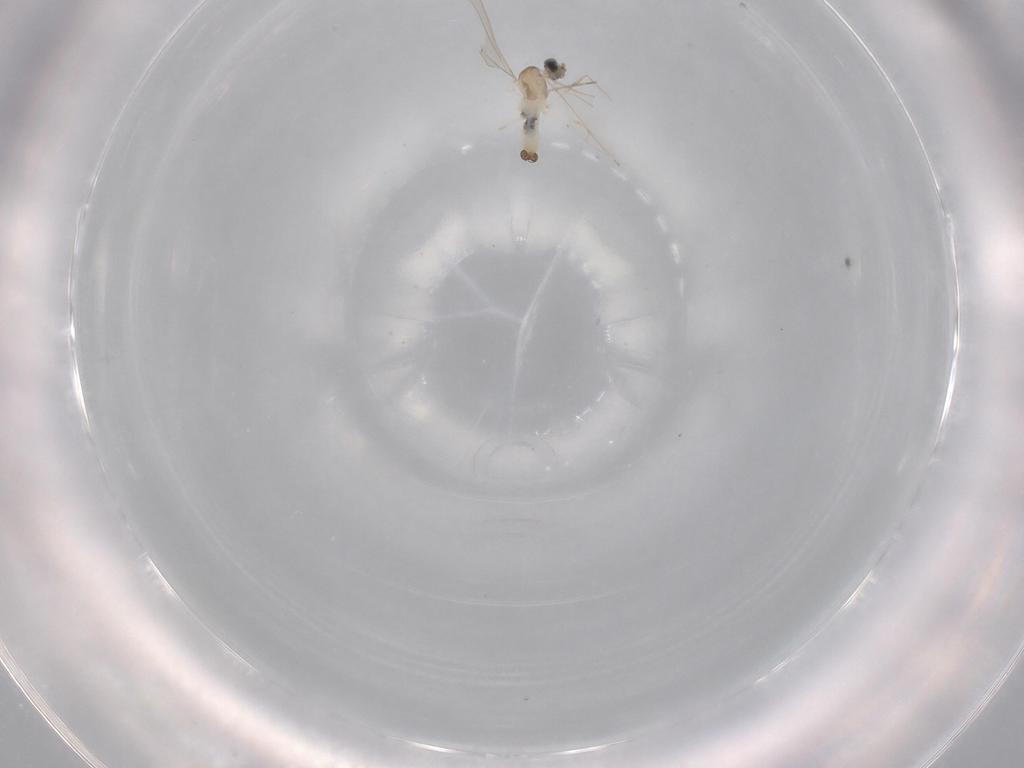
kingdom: Animalia
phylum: Arthropoda
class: Insecta
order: Diptera
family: Cecidomyiidae
